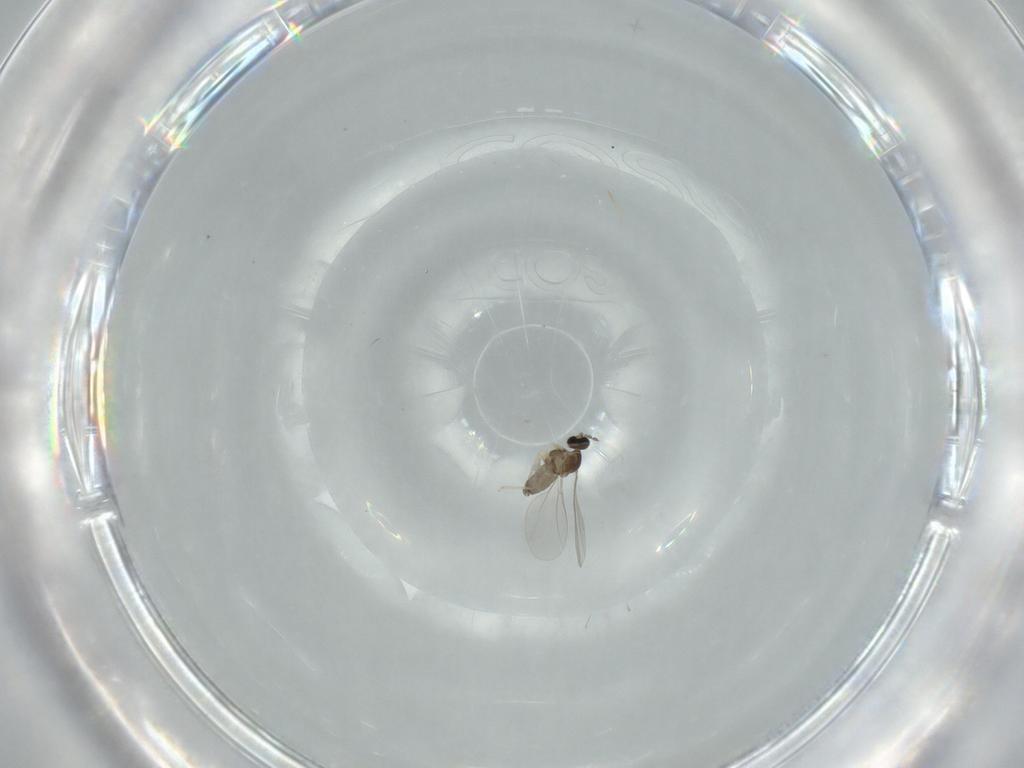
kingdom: Animalia
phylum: Arthropoda
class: Insecta
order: Diptera
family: Cecidomyiidae
